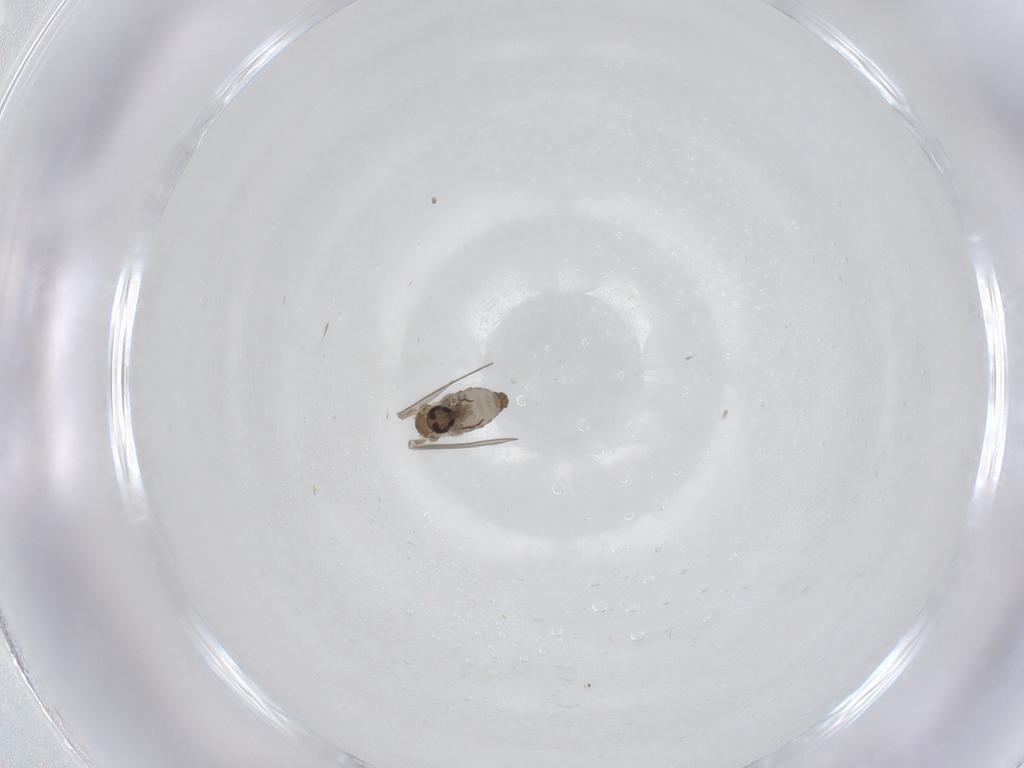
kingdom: Animalia
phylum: Arthropoda
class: Insecta
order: Diptera
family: Psychodidae
